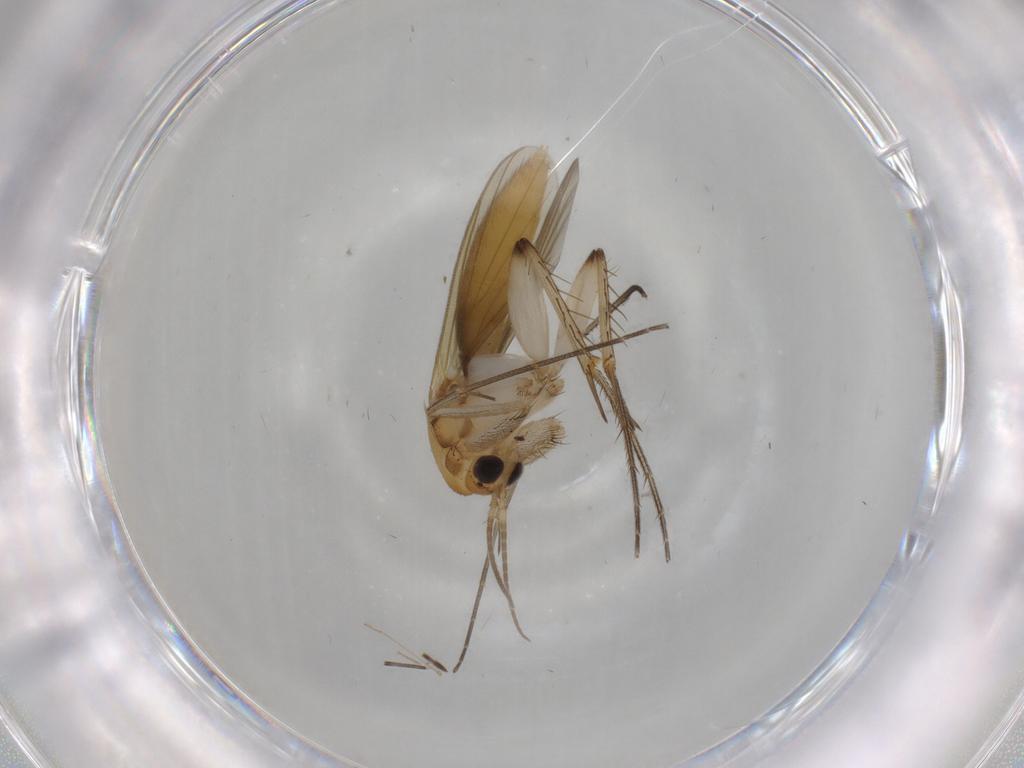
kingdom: Animalia
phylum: Arthropoda
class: Insecta
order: Diptera
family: Mycetophilidae
